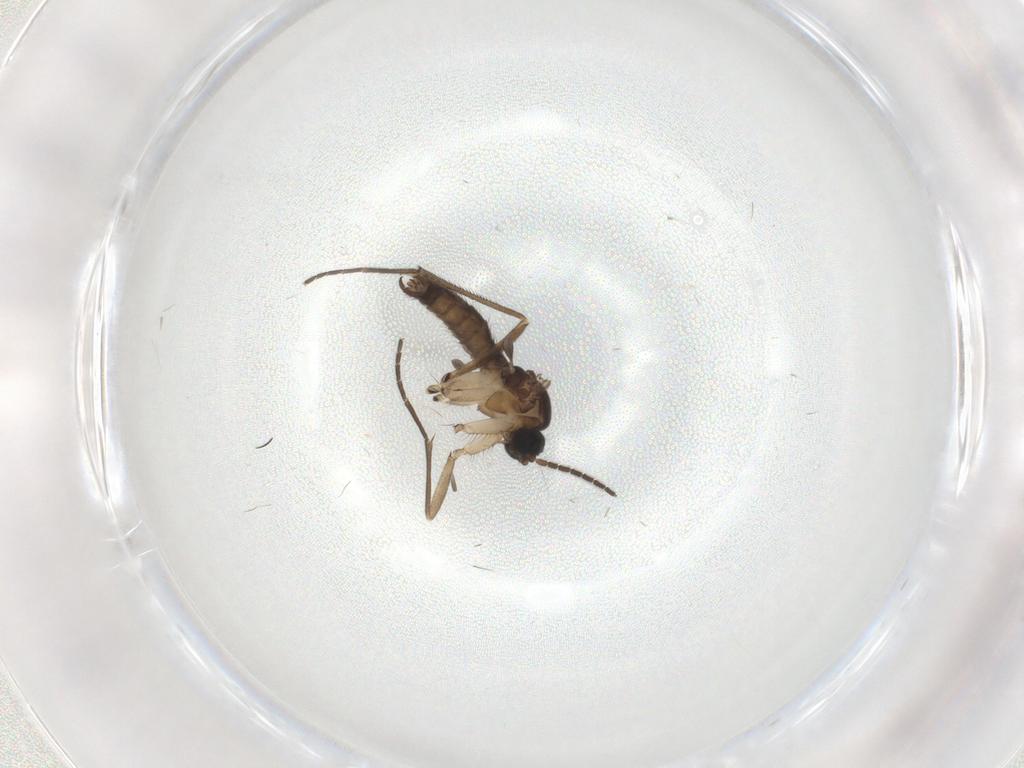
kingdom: Animalia
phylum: Arthropoda
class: Insecta
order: Diptera
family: Sciaridae
